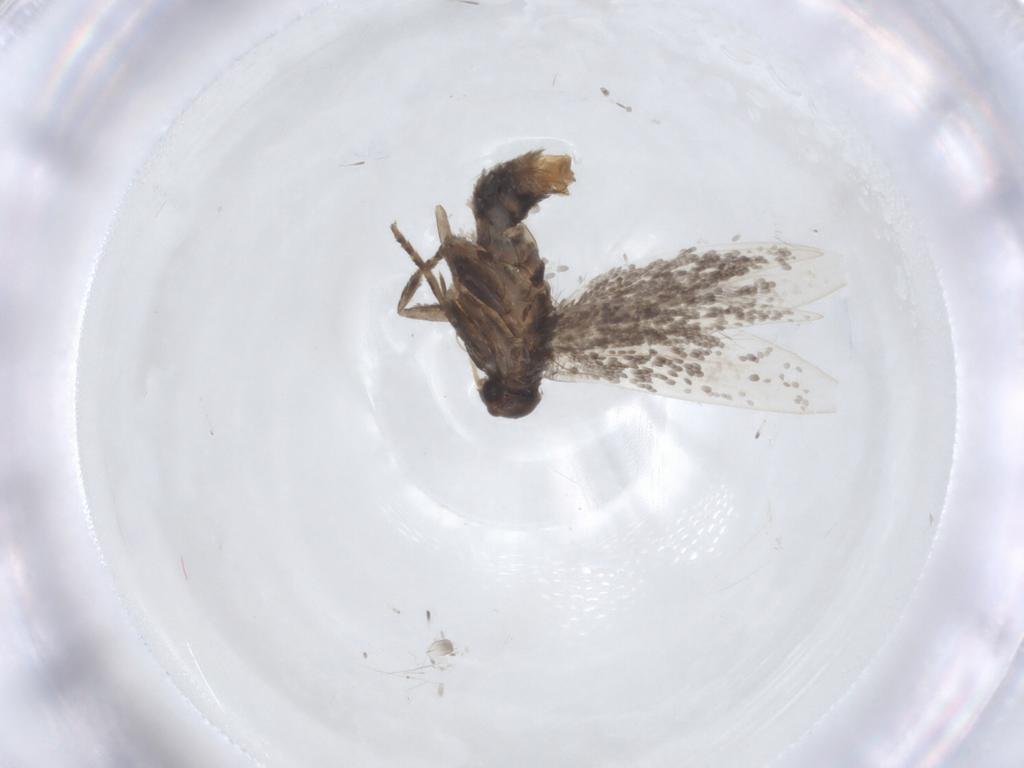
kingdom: Animalia
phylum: Arthropoda
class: Insecta
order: Lepidoptera
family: Elachistidae
